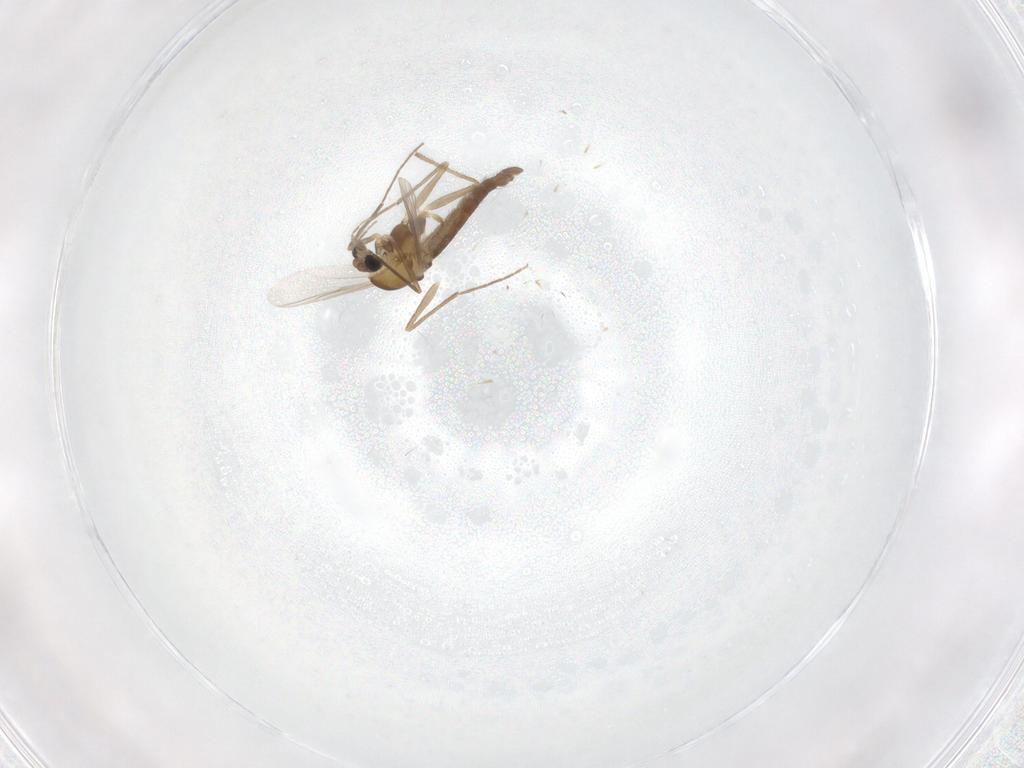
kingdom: Animalia
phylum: Arthropoda
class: Insecta
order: Diptera
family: Chironomidae
